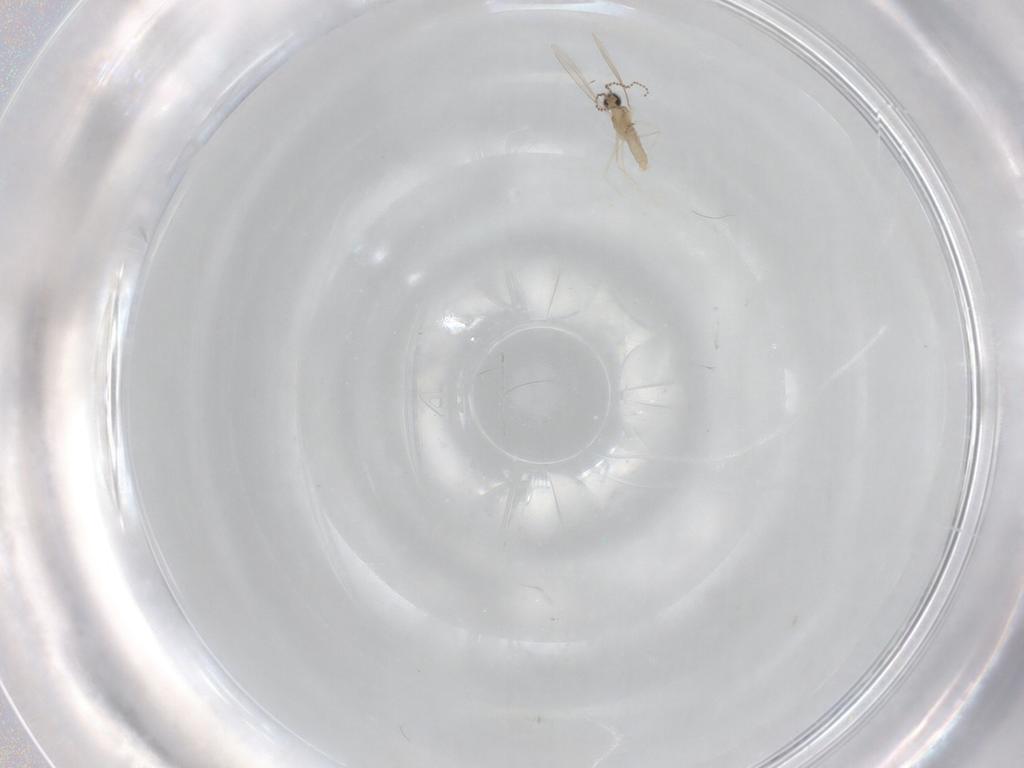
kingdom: Animalia
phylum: Arthropoda
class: Insecta
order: Diptera
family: Cecidomyiidae
